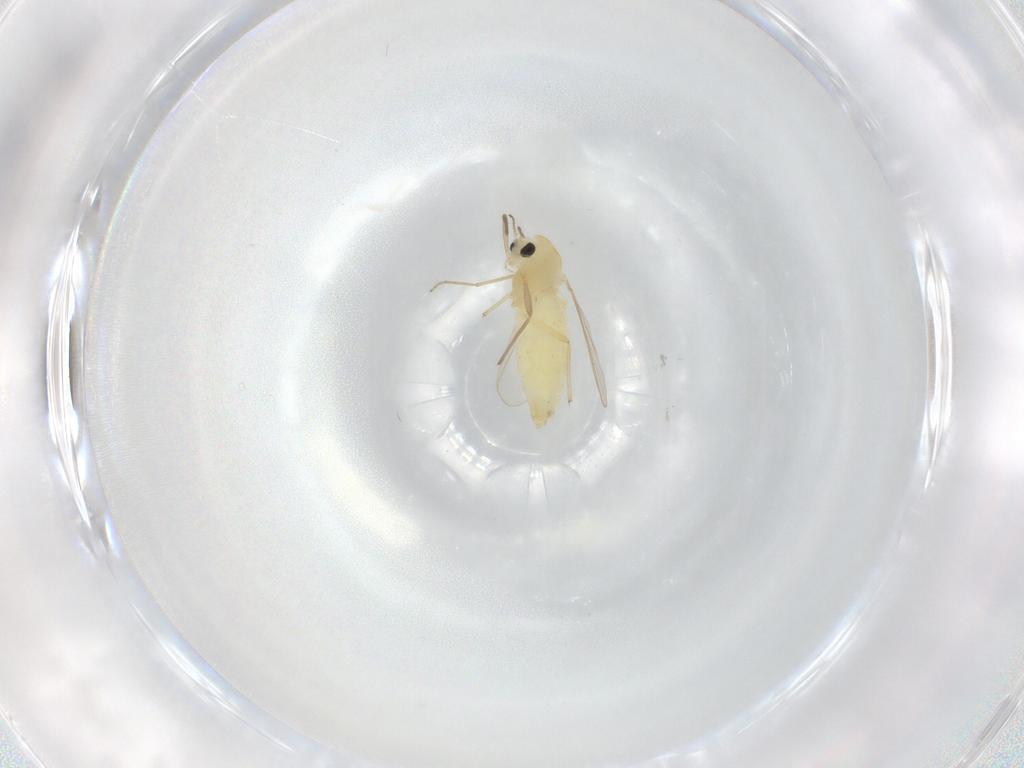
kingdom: Animalia
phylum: Arthropoda
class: Insecta
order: Diptera
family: Chironomidae
